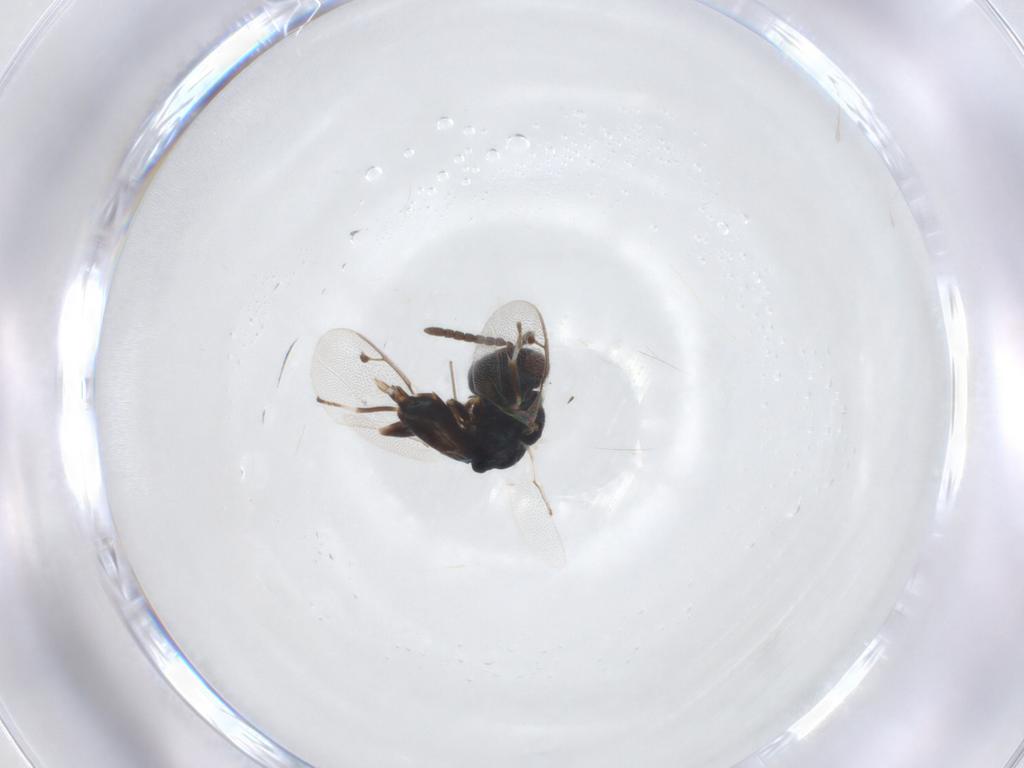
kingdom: Animalia
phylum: Arthropoda
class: Insecta
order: Hymenoptera
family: Pteromalidae
